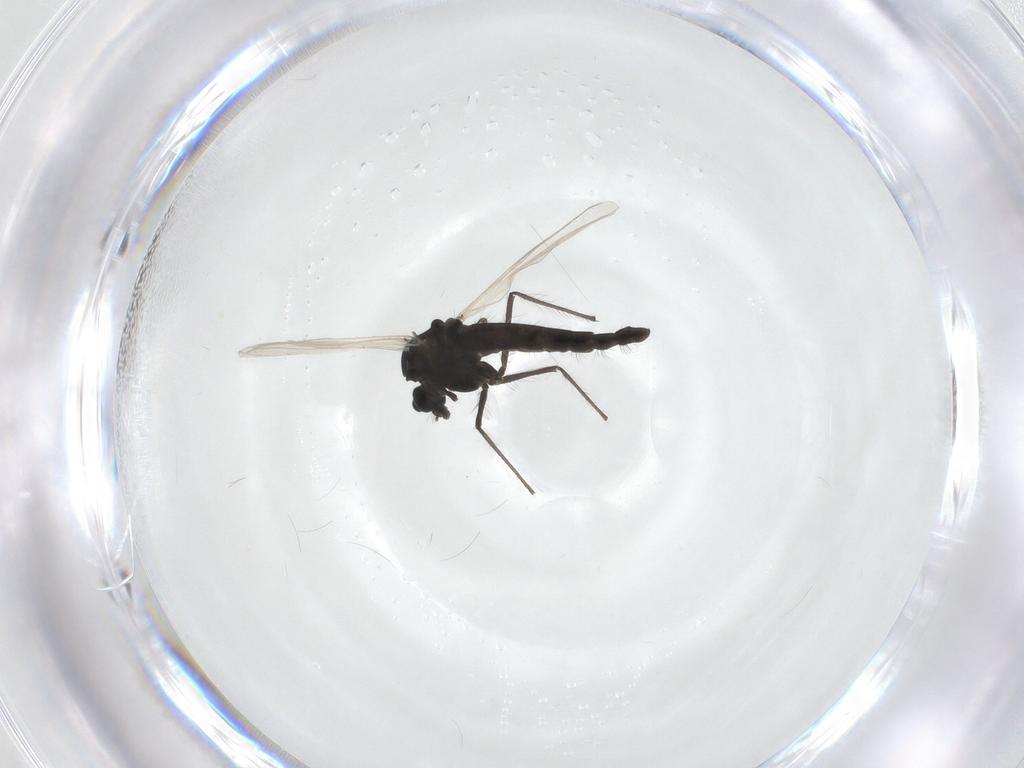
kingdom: Animalia
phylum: Arthropoda
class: Insecta
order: Diptera
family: Chironomidae
